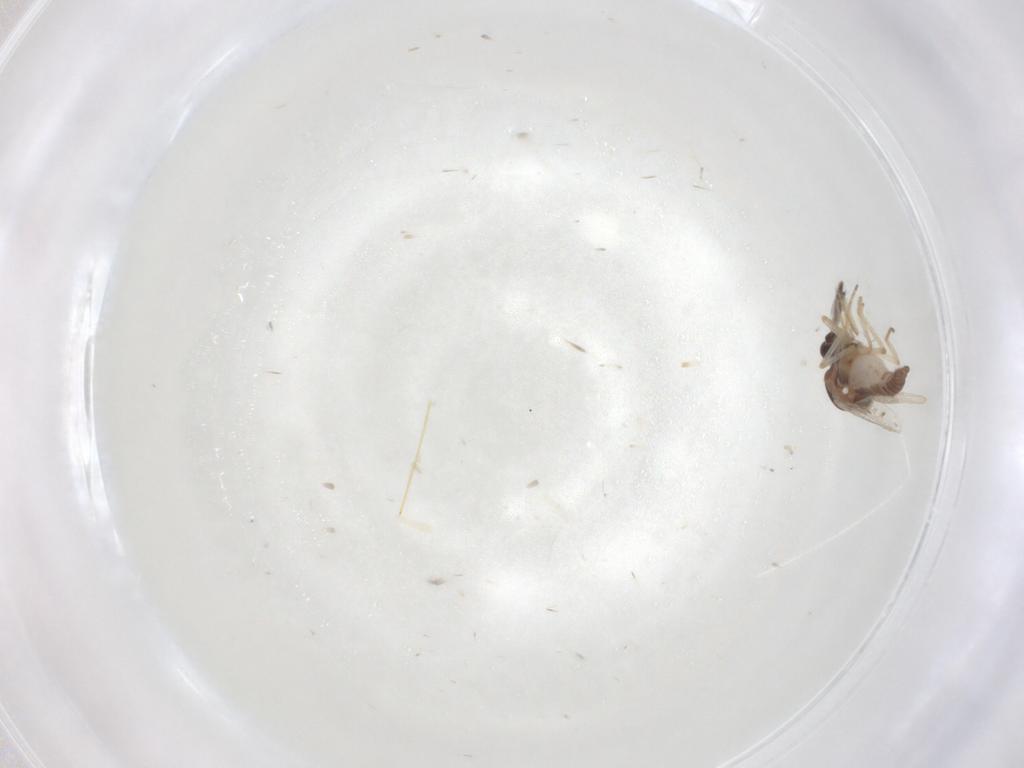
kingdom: Animalia
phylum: Arthropoda
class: Insecta
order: Diptera
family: Ceratopogonidae
